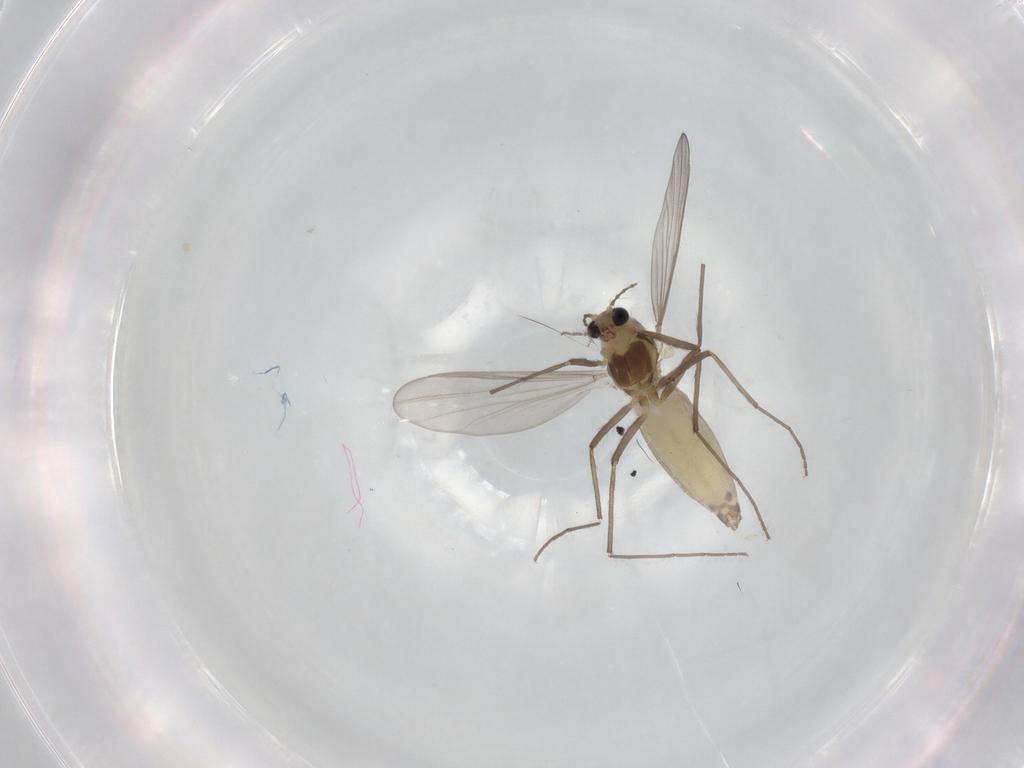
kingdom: Animalia
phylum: Arthropoda
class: Insecta
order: Diptera
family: Chironomidae
